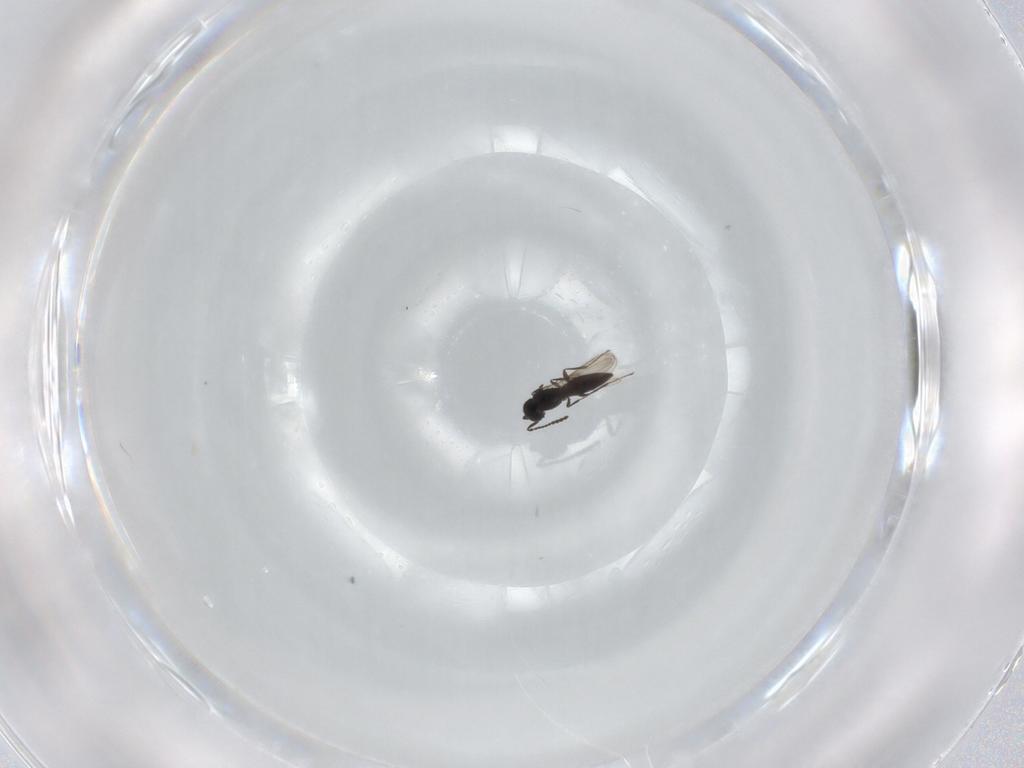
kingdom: Animalia
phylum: Arthropoda
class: Insecta
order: Hymenoptera
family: Scelionidae
